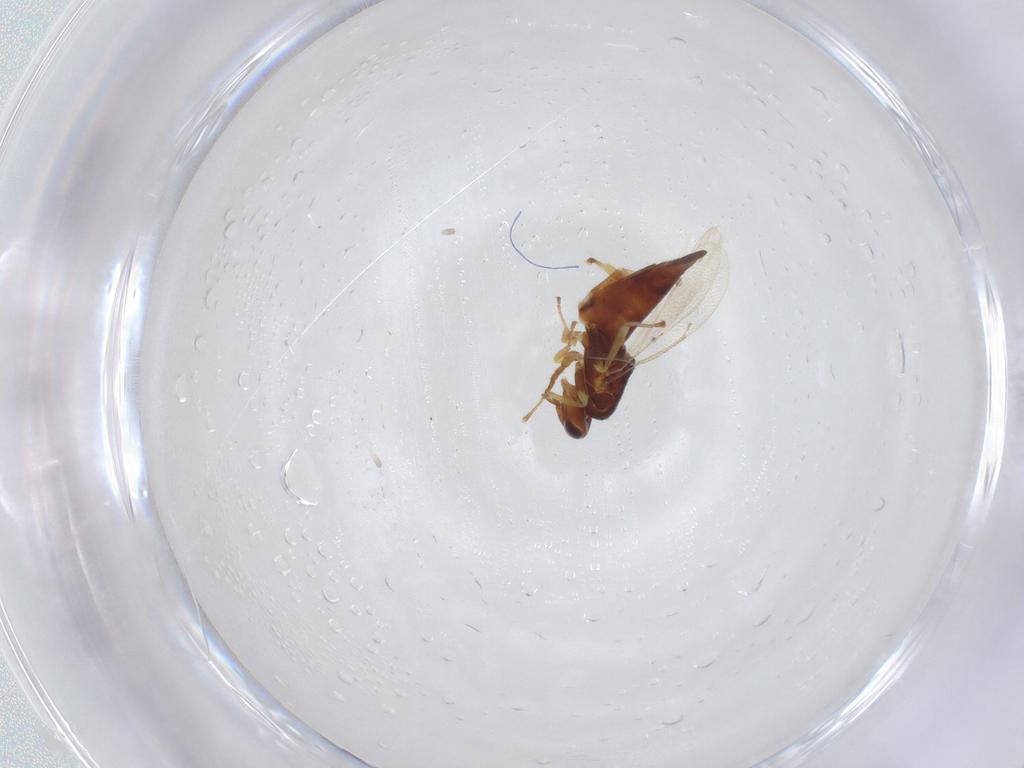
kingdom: Animalia
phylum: Arthropoda
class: Insecta
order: Hymenoptera
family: Eulophidae
